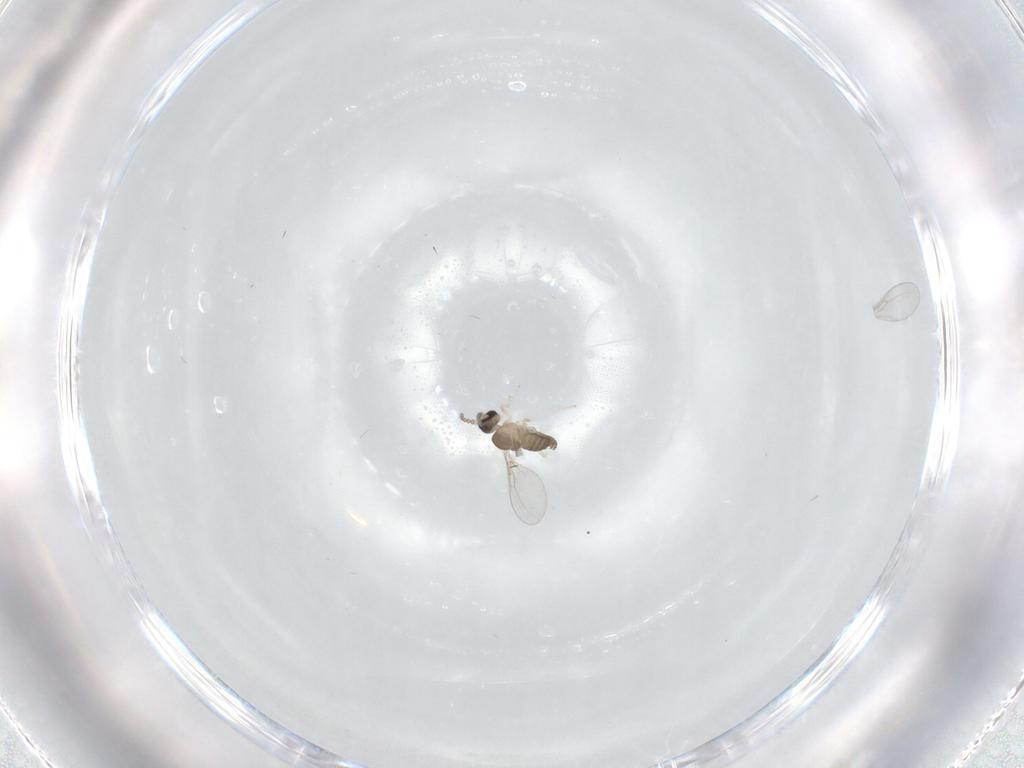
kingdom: Animalia
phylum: Arthropoda
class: Insecta
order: Diptera
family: Cecidomyiidae
